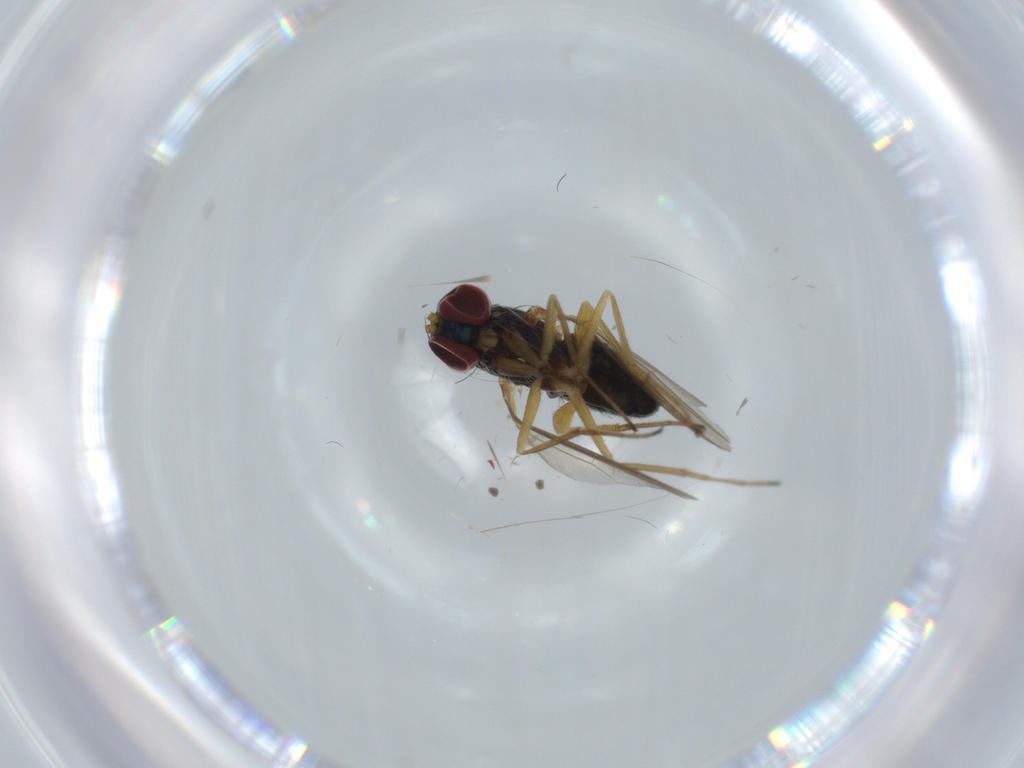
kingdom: Animalia
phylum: Arthropoda
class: Insecta
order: Diptera
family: Dolichopodidae
